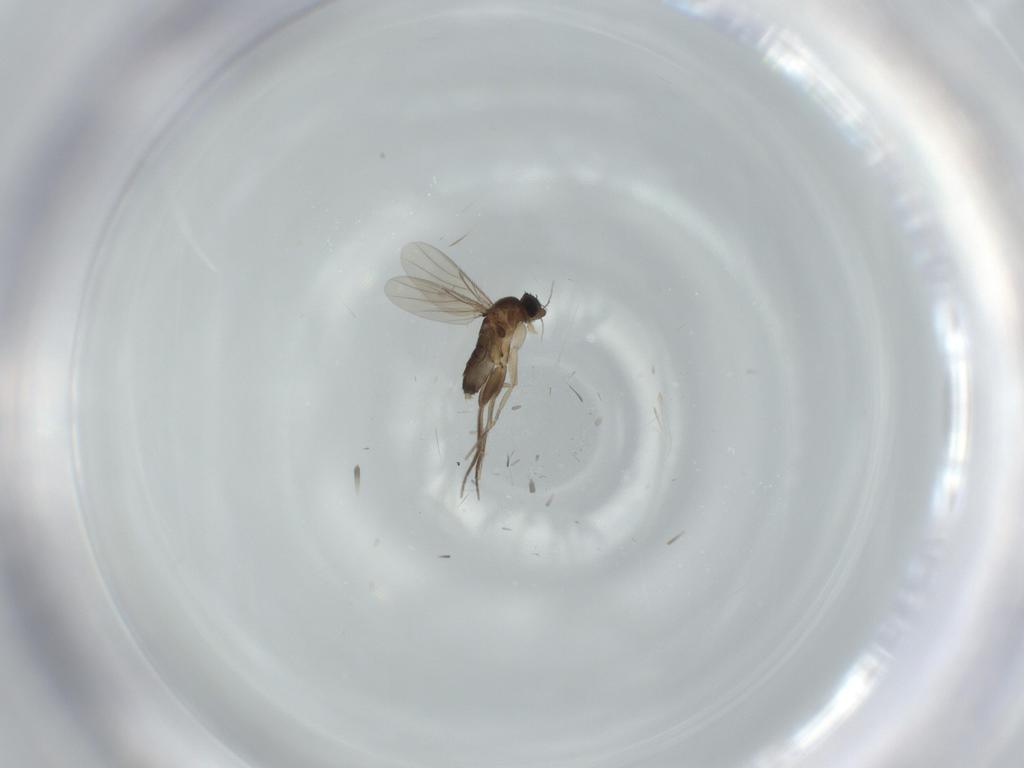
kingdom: Animalia
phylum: Arthropoda
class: Insecta
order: Diptera
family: Phoridae
